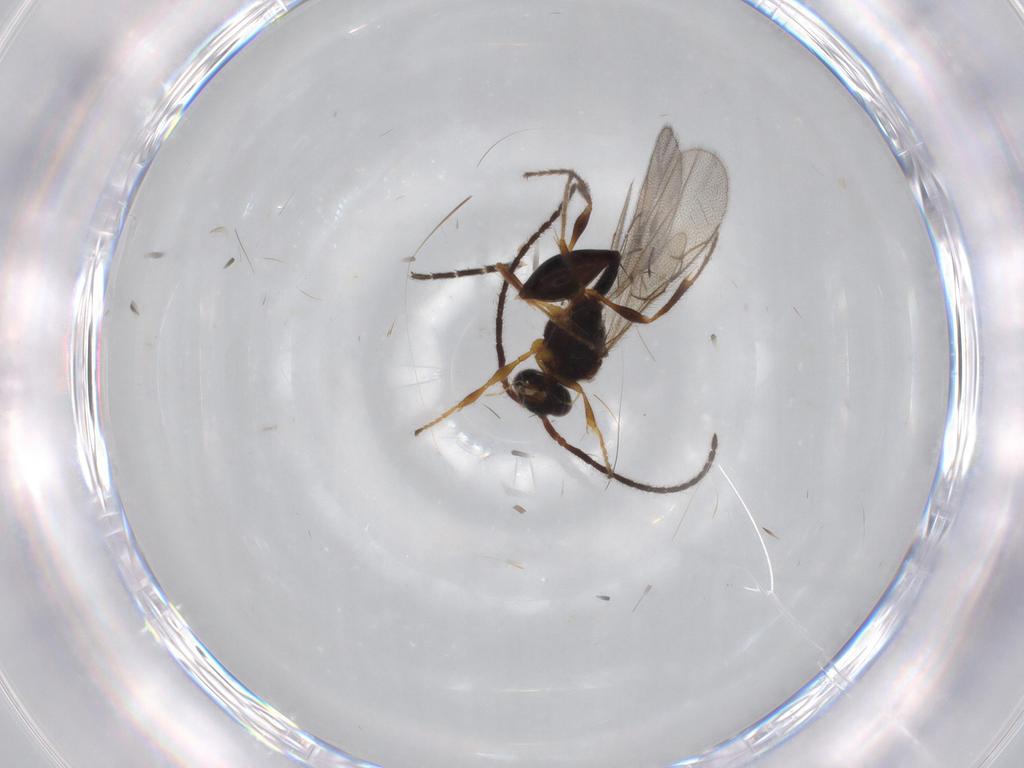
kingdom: Animalia
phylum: Arthropoda
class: Insecta
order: Hymenoptera
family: Diapriidae
